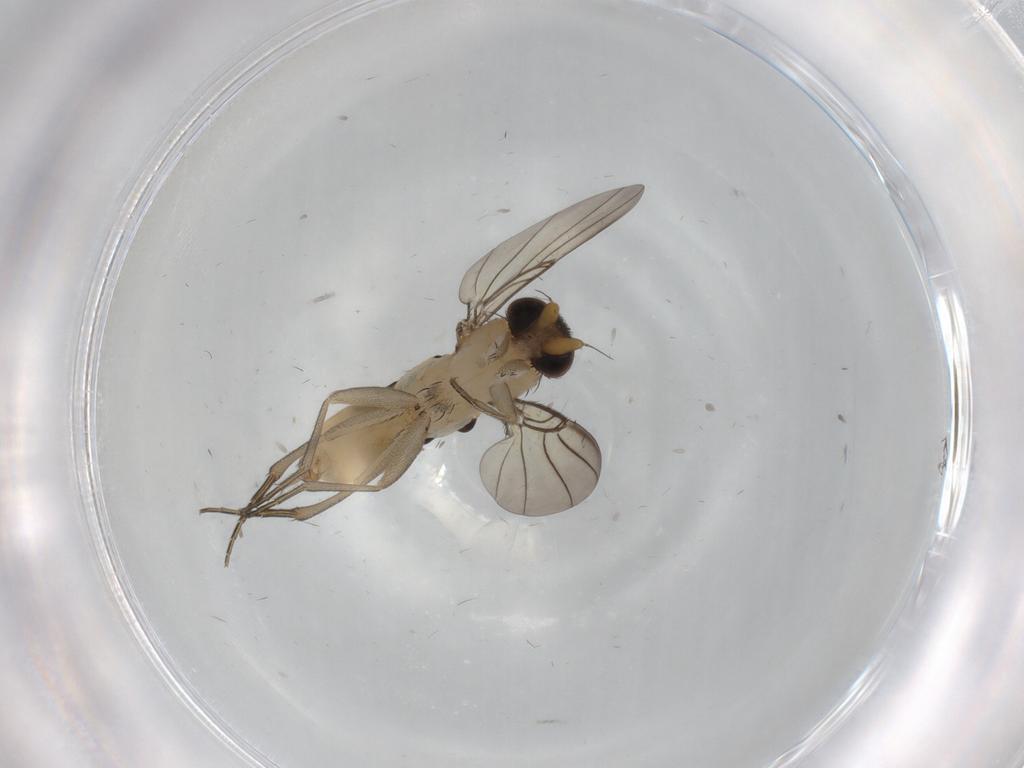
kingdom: Animalia
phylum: Arthropoda
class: Insecta
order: Diptera
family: Phoridae
